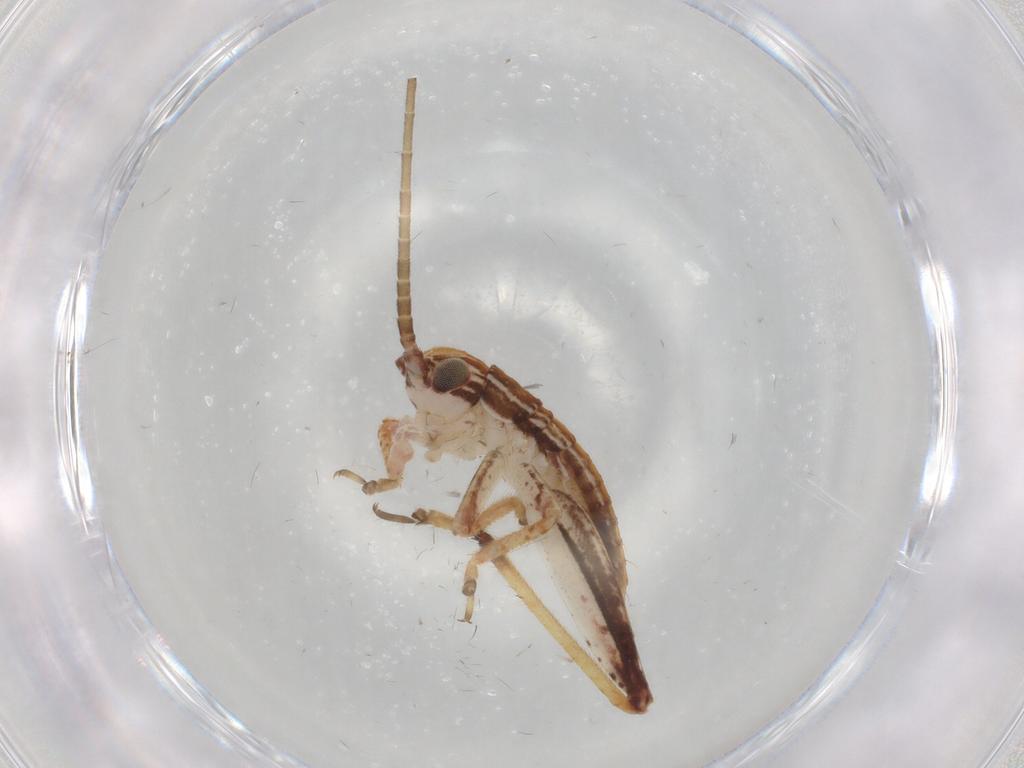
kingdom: Animalia
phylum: Arthropoda
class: Insecta
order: Orthoptera
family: Gryllidae
